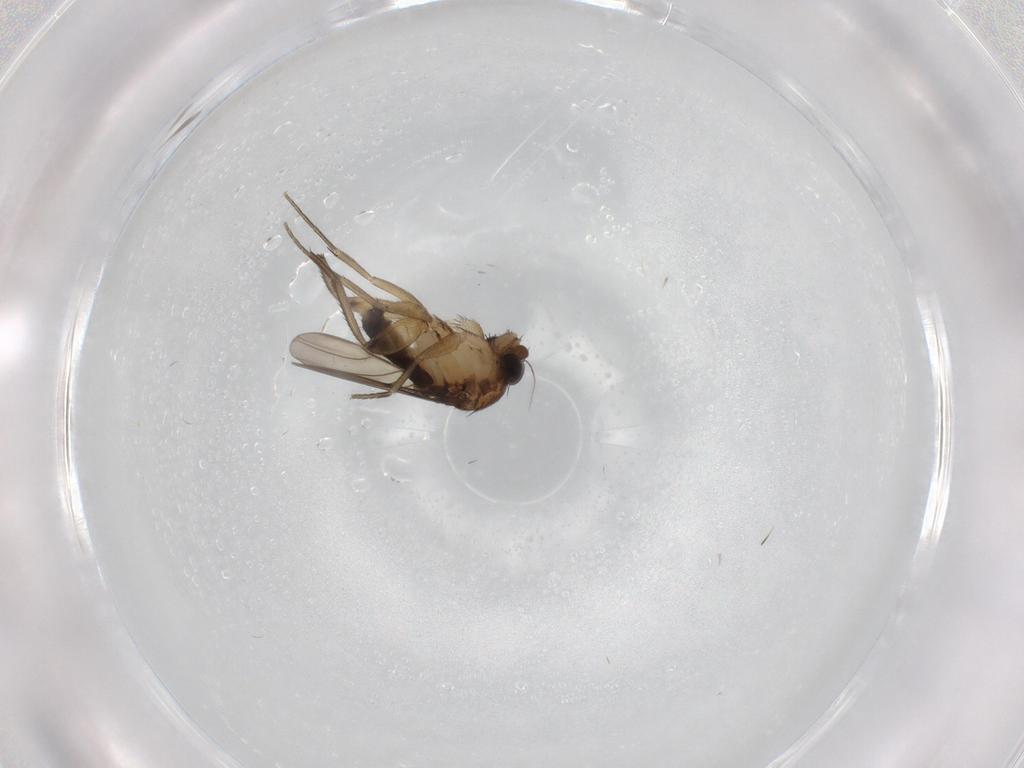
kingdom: Animalia
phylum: Arthropoda
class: Insecta
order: Diptera
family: Phoridae
